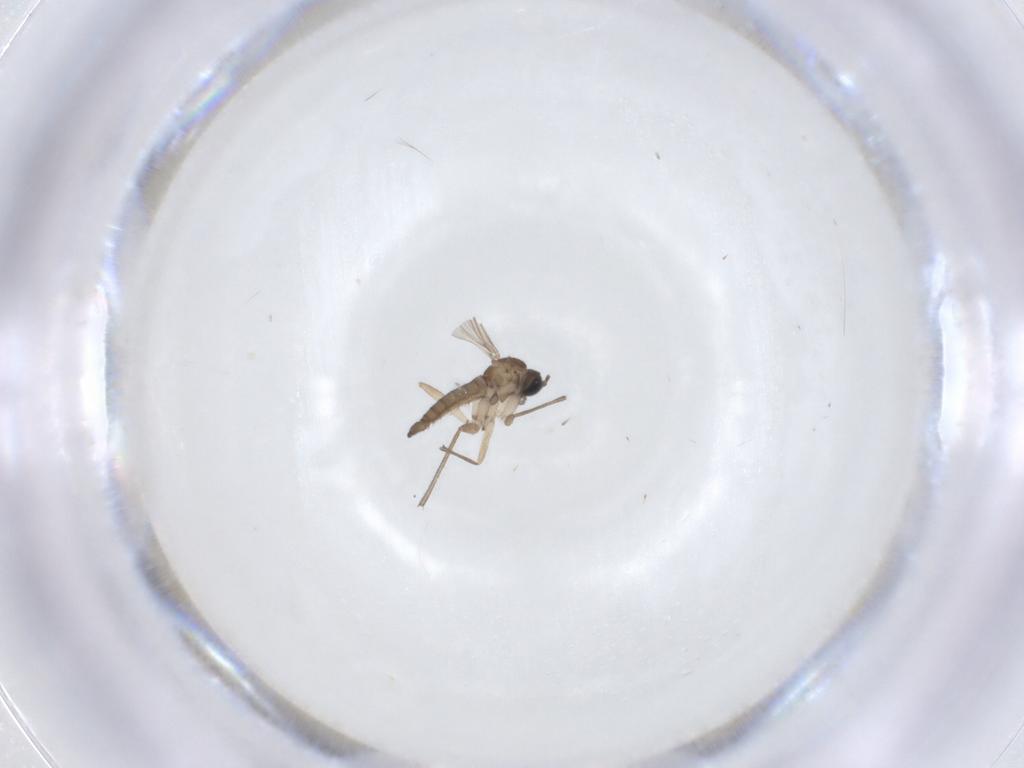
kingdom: Animalia
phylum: Arthropoda
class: Insecta
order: Diptera
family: Sciaridae
